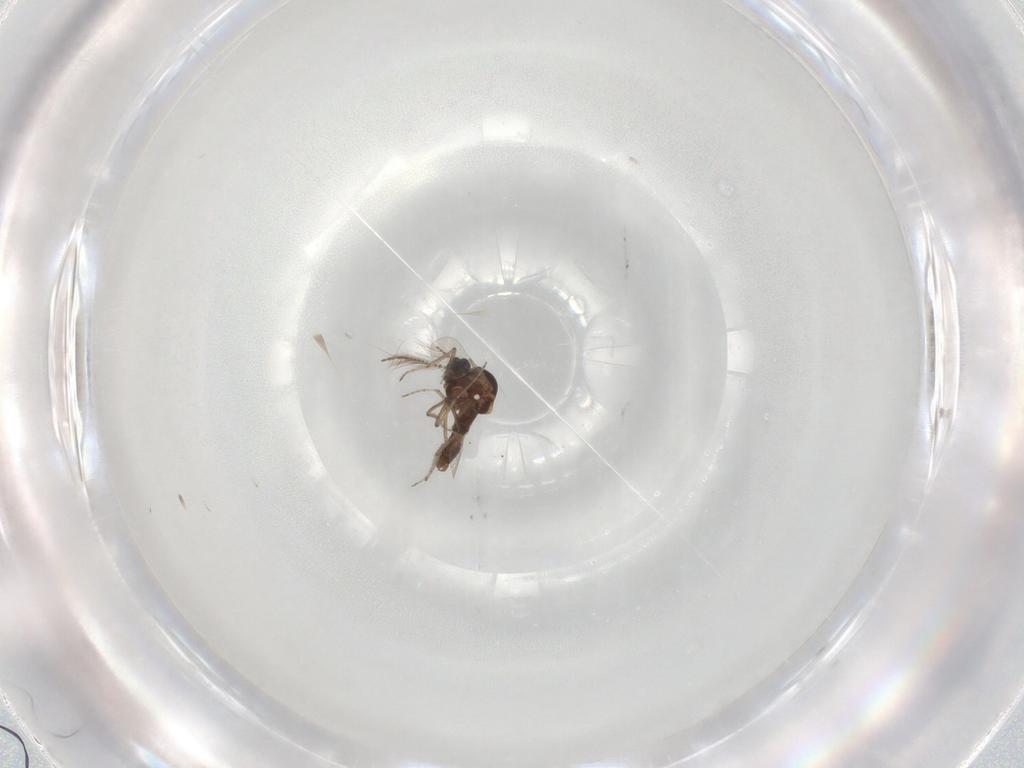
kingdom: Animalia
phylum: Arthropoda
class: Insecta
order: Diptera
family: Ceratopogonidae
